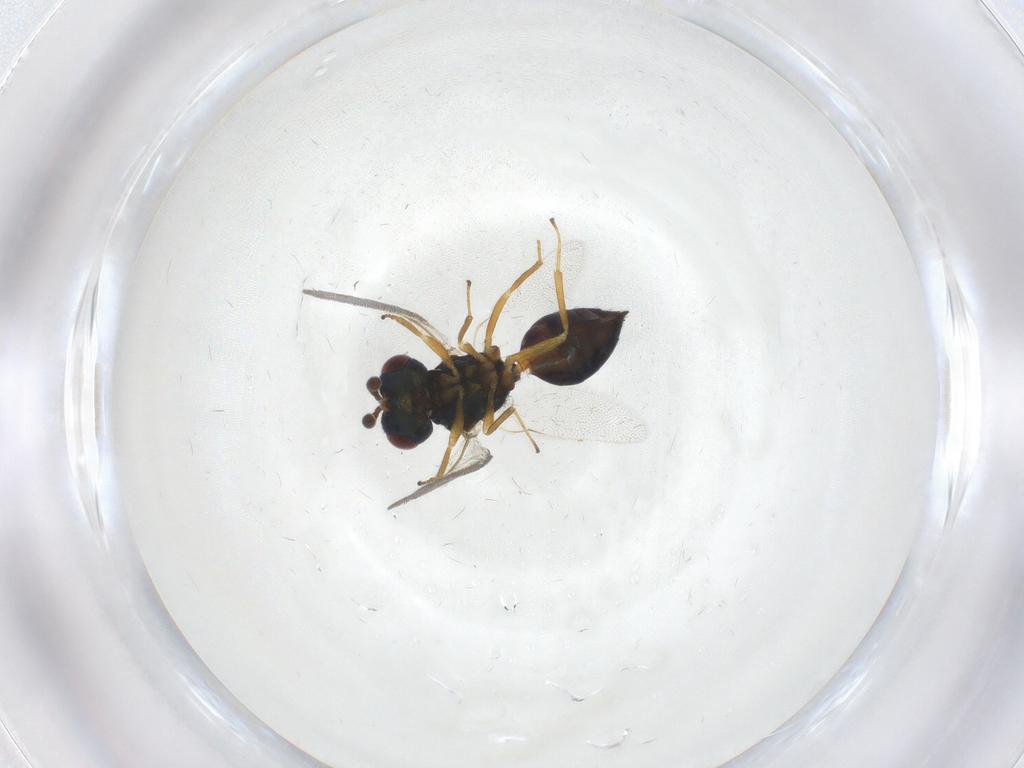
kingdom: Animalia
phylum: Arthropoda
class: Insecta
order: Hymenoptera
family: Pteromalidae
